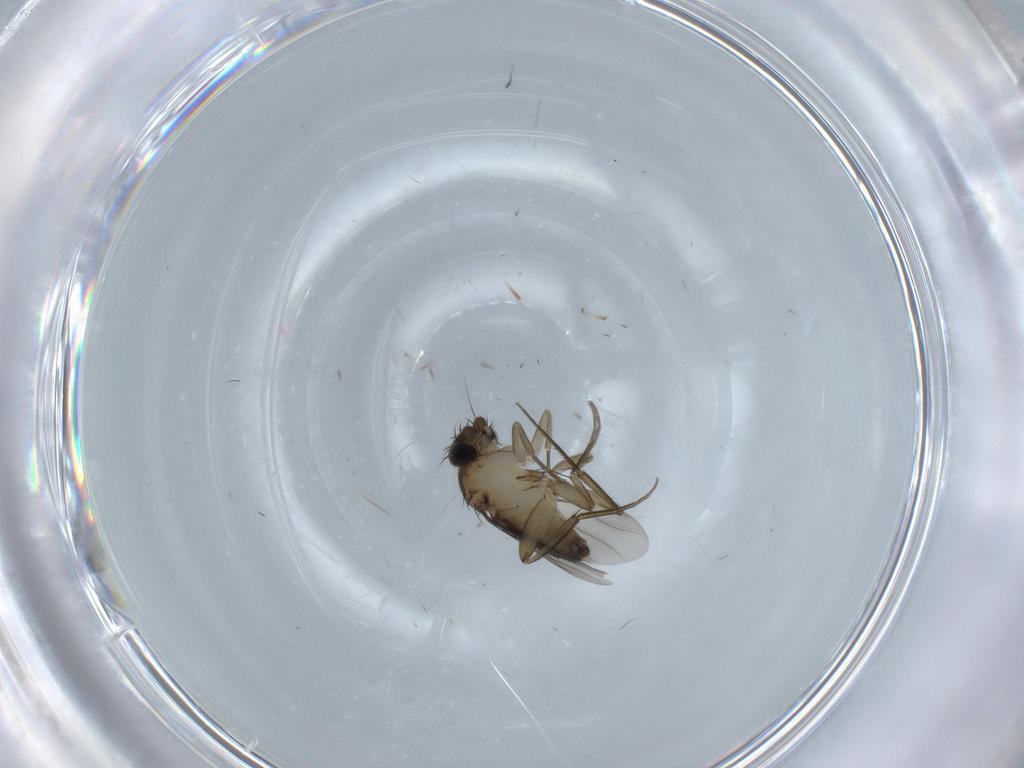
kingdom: Animalia
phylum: Arthropoda
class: Insecta
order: Diptera
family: Phoridae
